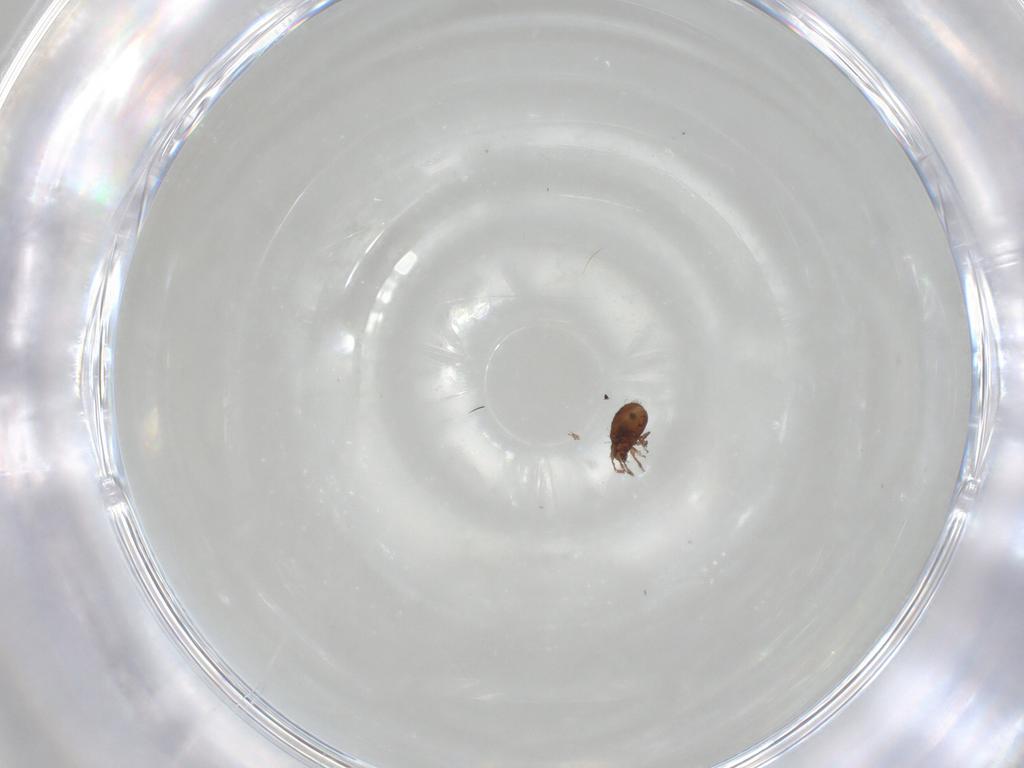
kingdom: Animalia
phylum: Arthropoda
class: Arachnida
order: Sarcoptiformes
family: Scheloribatidae
